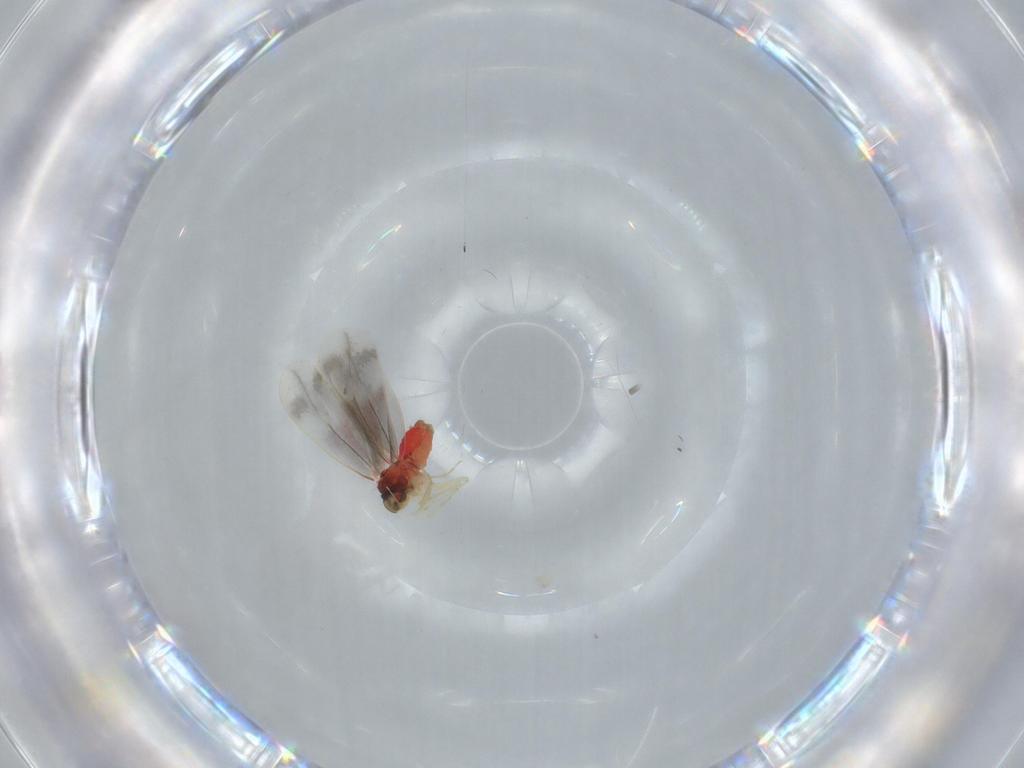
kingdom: Animalia
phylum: Arthropoda
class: Insecta
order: Hemiptera
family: Aleyrodidae
